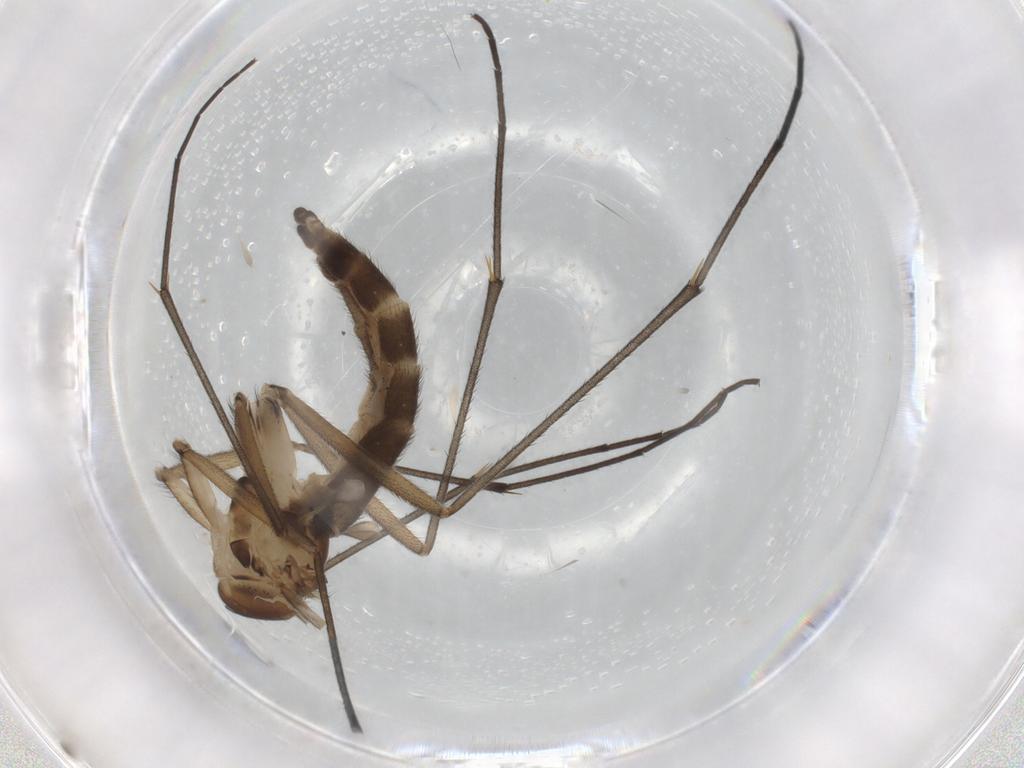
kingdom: Animalia
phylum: Arthropoda
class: Insecta
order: Diptera
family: Sciaridae
